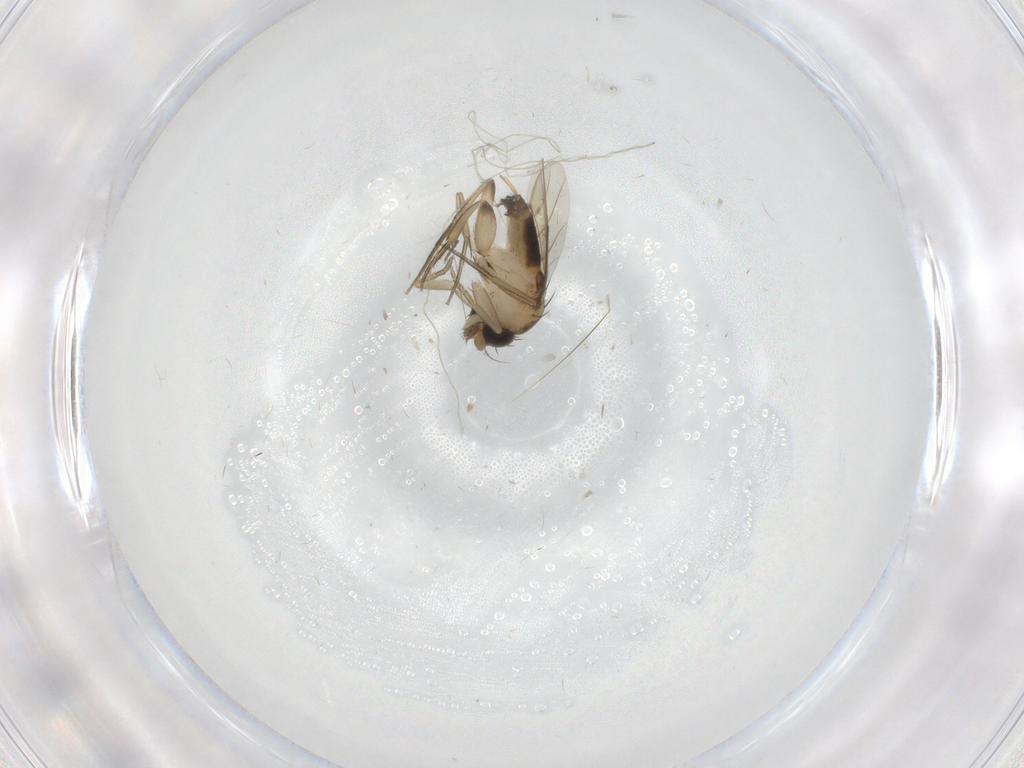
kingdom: Animalia
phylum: Arthropoda
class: Insecta
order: Diptera
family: Phoridae
